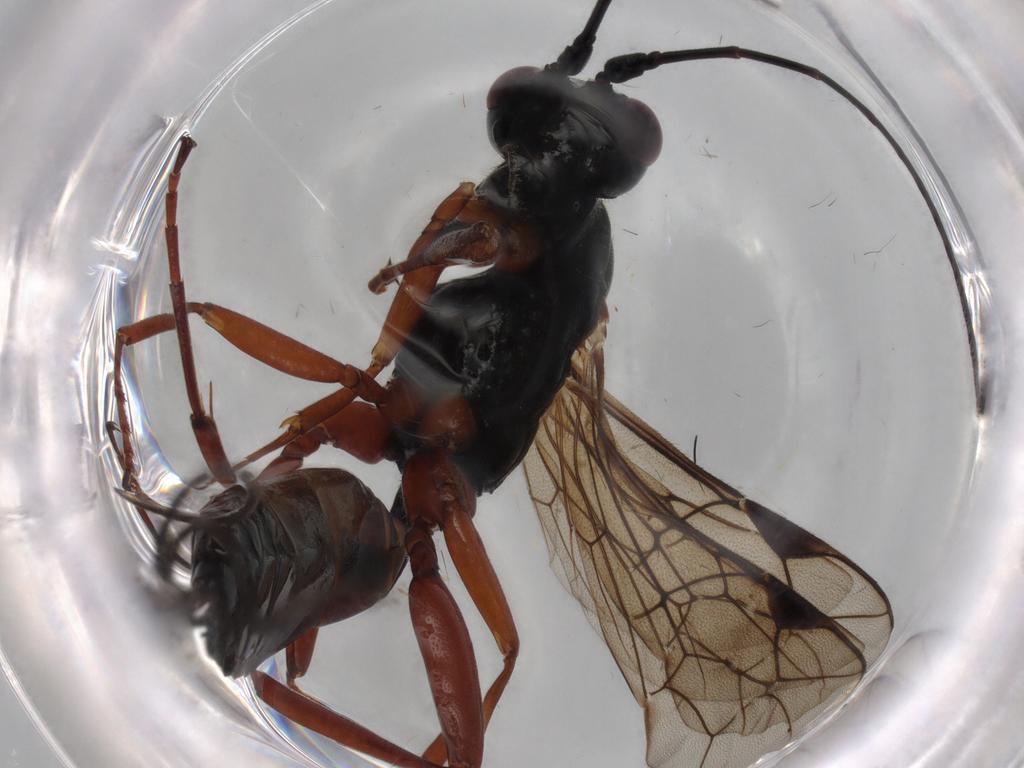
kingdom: Animalia
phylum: Arthropoda
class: Insecta
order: Hymenoptera
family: Ichneumonidae
